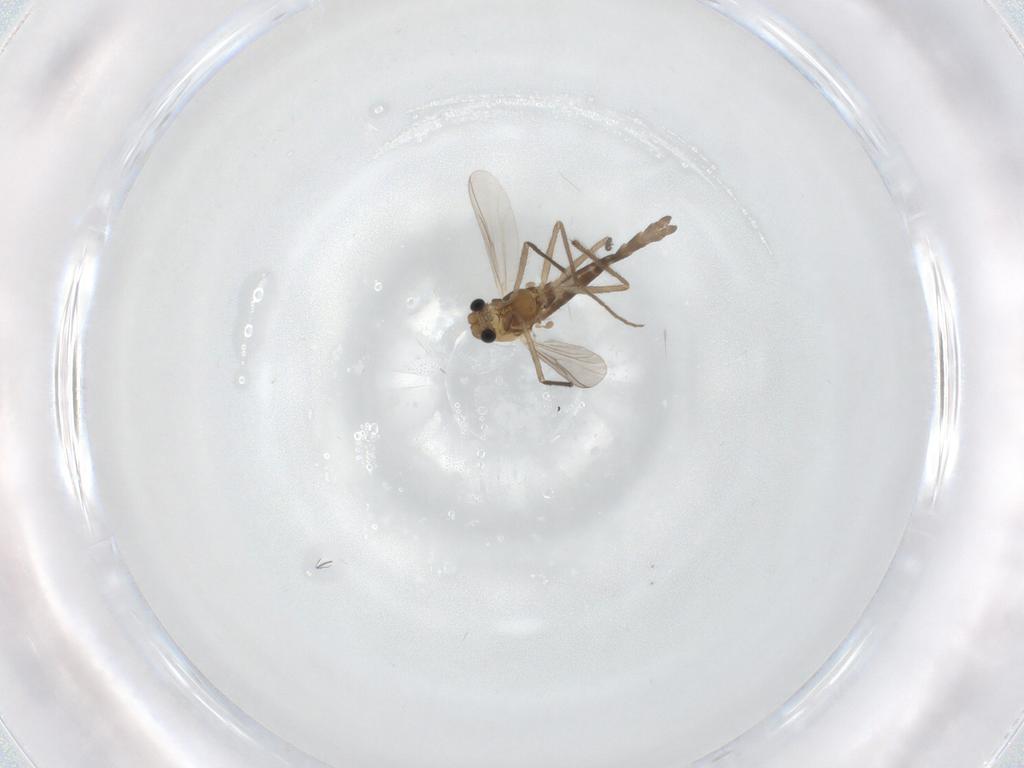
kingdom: Animalia
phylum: Arthropoda
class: Insecta
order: Diptera
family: Chironomidae
